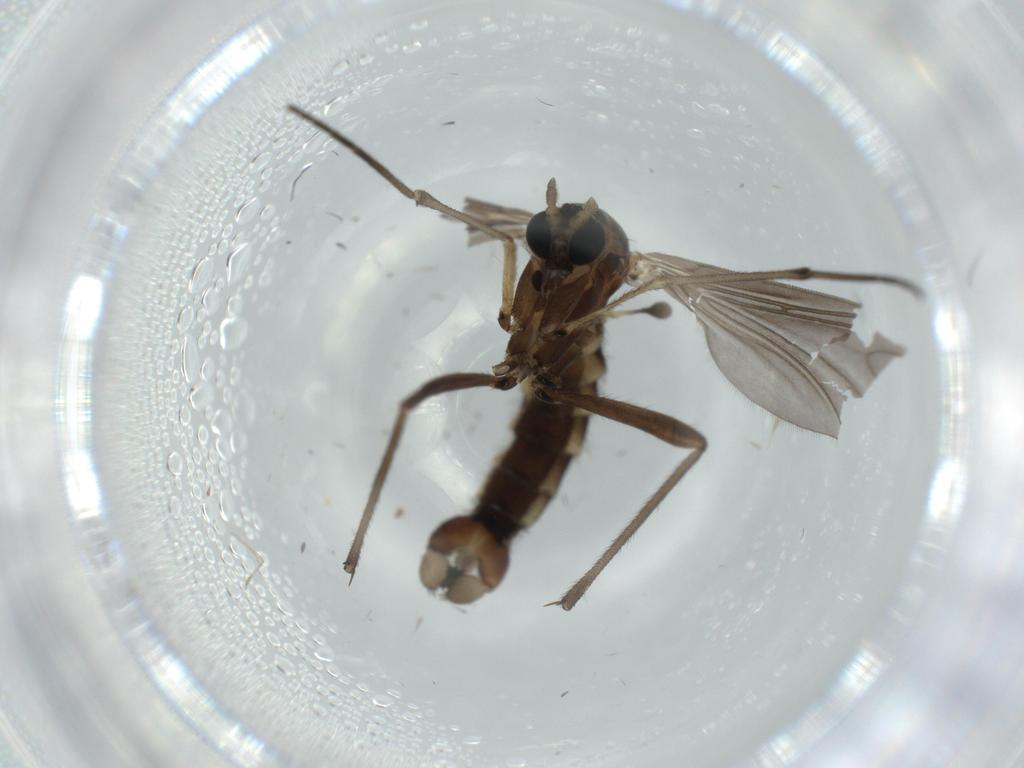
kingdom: Animalia
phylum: Arthropoda
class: Insecta
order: Diptera
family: Sciaridae
